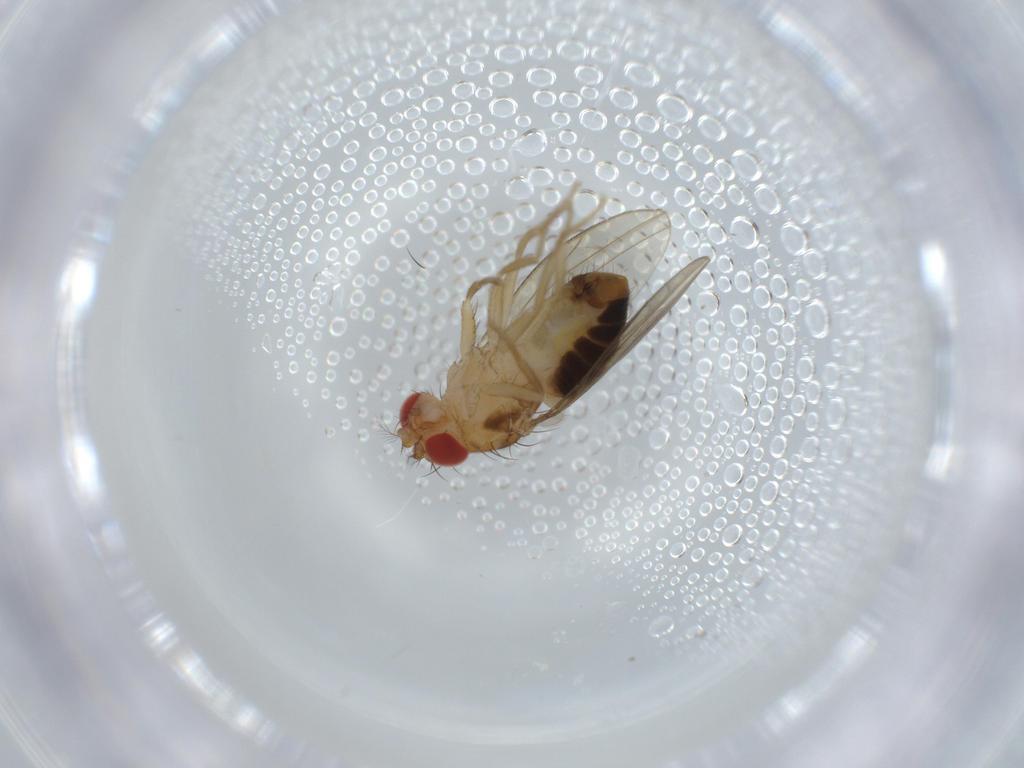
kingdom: Animalia
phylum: Arthropoda
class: Insecta
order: Diptera
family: Drosophilidae
